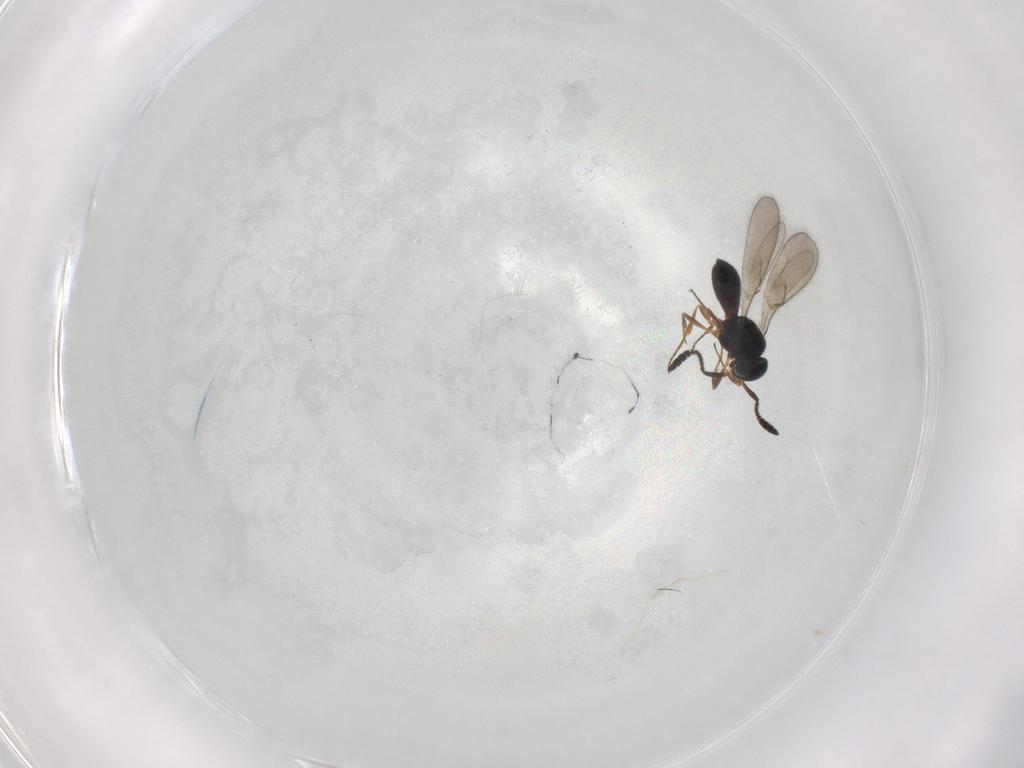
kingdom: Animalia
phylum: Arthropoda
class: Insecta
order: Hymenoptera
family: Scelionidae
